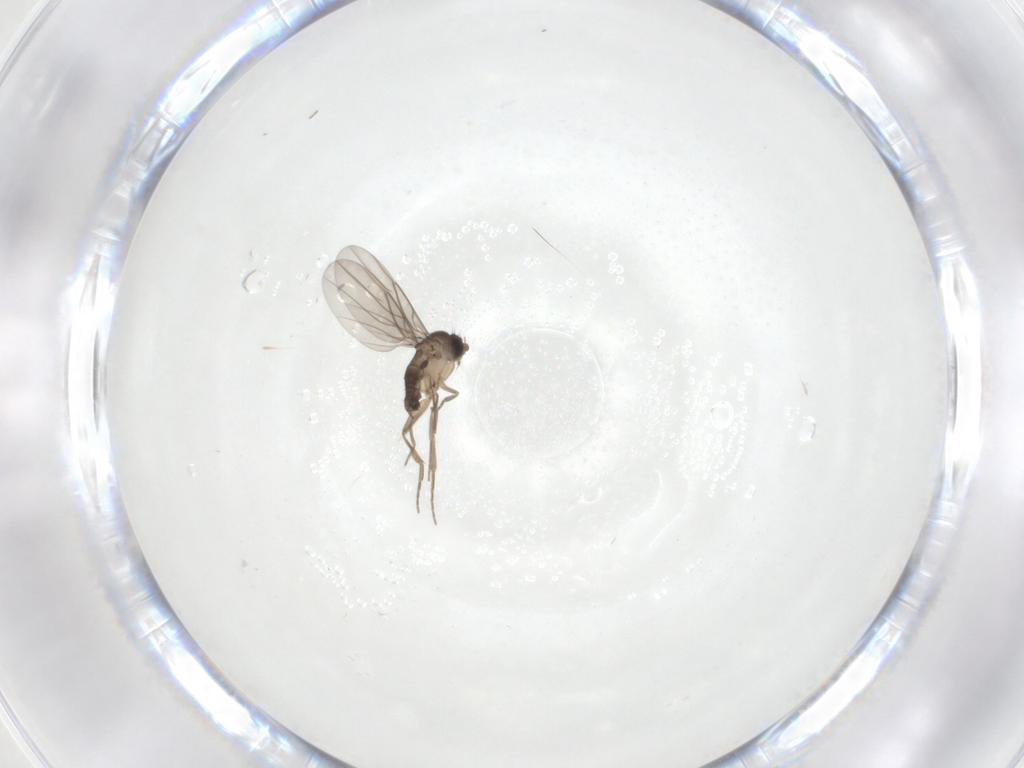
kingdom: Animalia
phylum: Arthropoda
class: Insecta
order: Diptera
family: Phoridae
